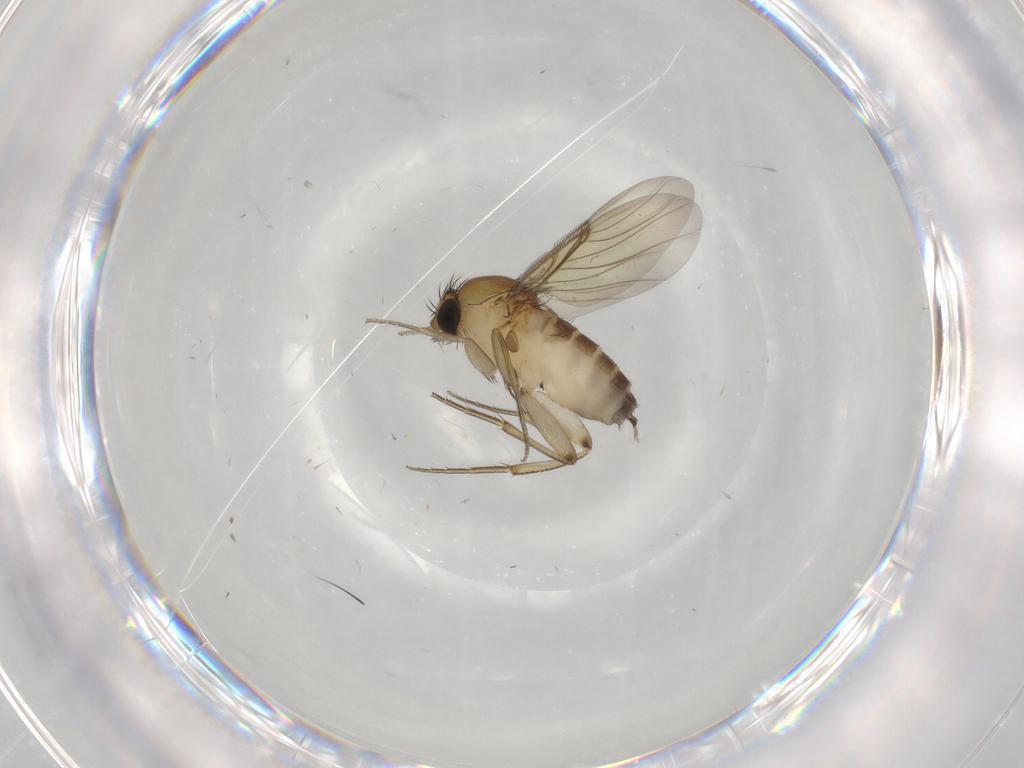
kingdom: Animalia
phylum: Arthropoda
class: Insecta
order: Diptera
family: Phoridae
